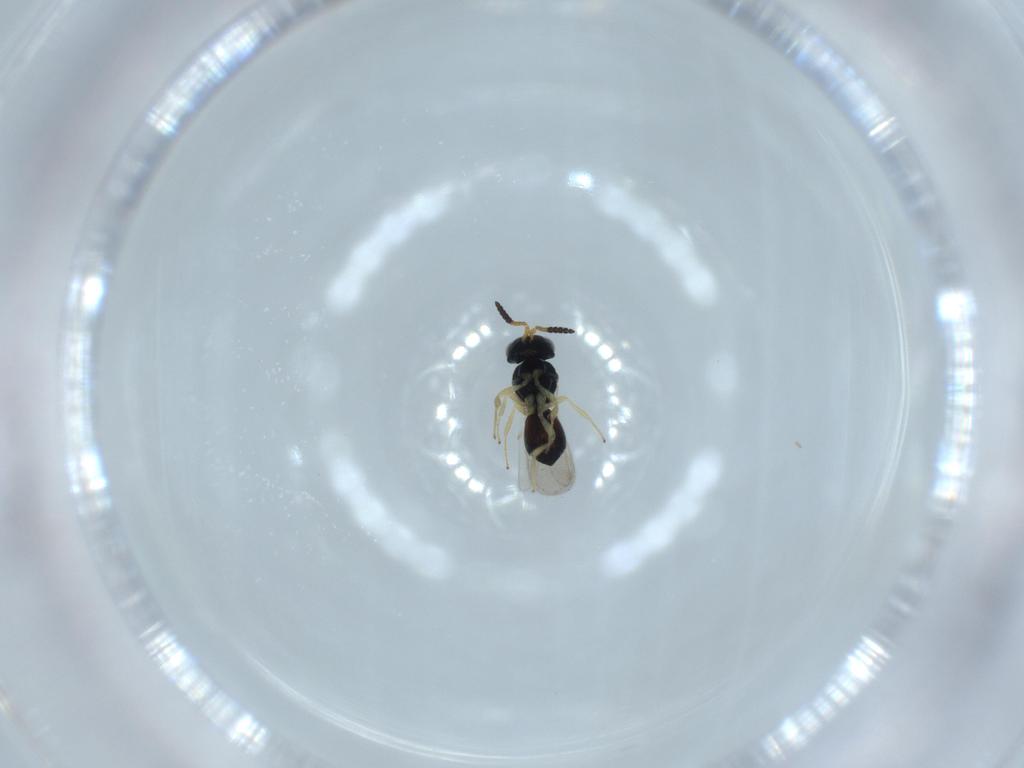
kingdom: Animalia
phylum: Arthropoda
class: Insecta
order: Hymenoptera
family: Scelionidae
